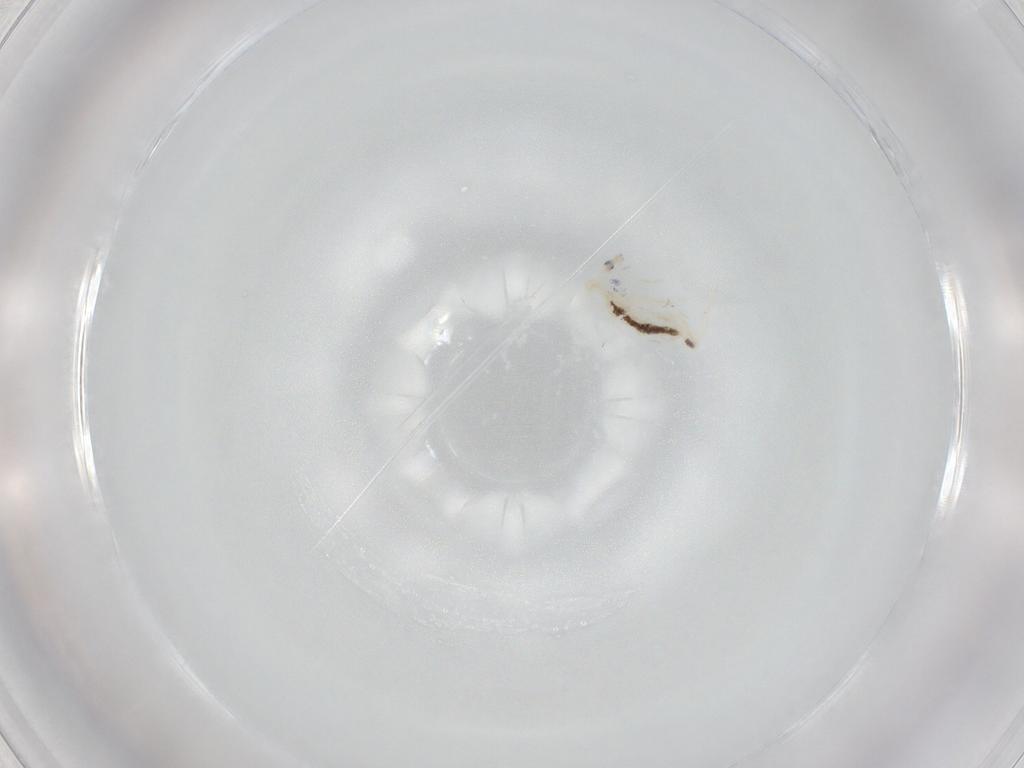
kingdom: Animalia
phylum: Arthropoda
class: Collembola
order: Entomobryomorpha
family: Entomobryidae
